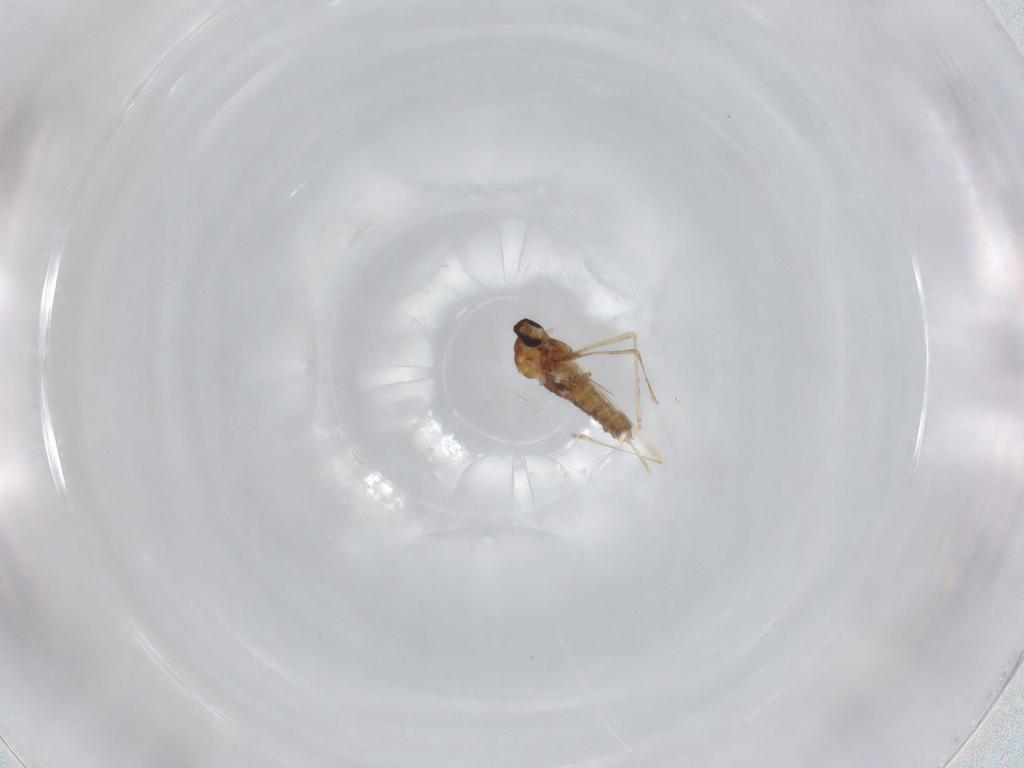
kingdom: Animalia
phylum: Arthropoda
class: Insecta
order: Diptera
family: Cecidomyiidae
